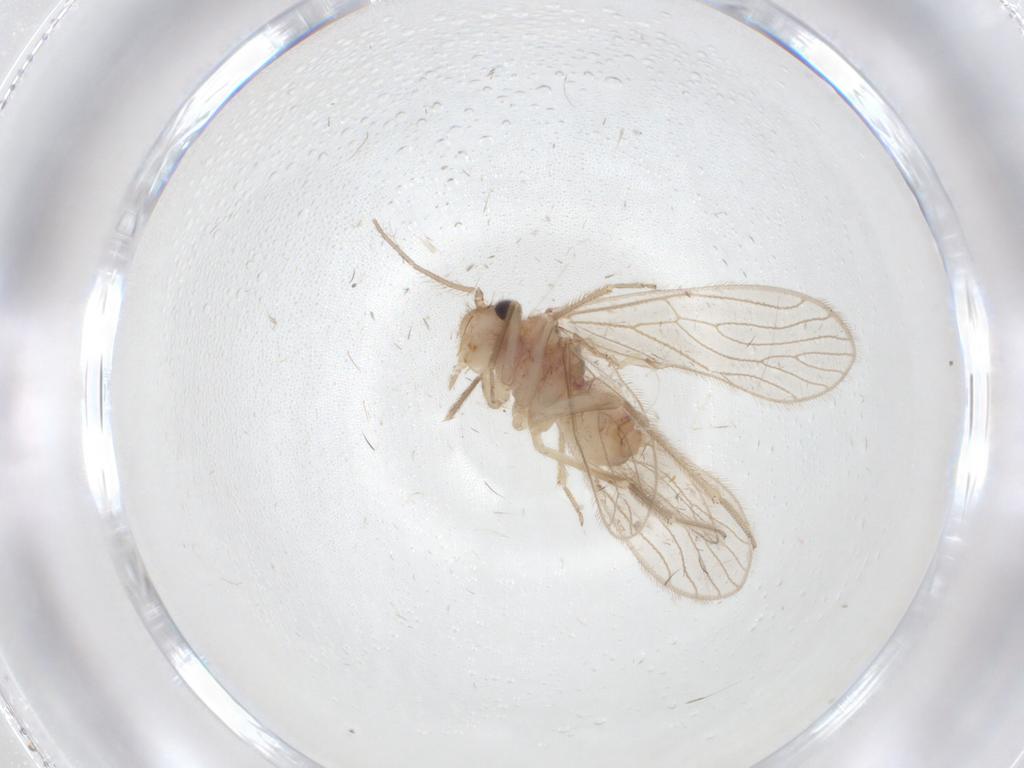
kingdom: Animalia
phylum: Arthropoda
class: Insecta
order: Psocodea
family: Cladiopsocidae
